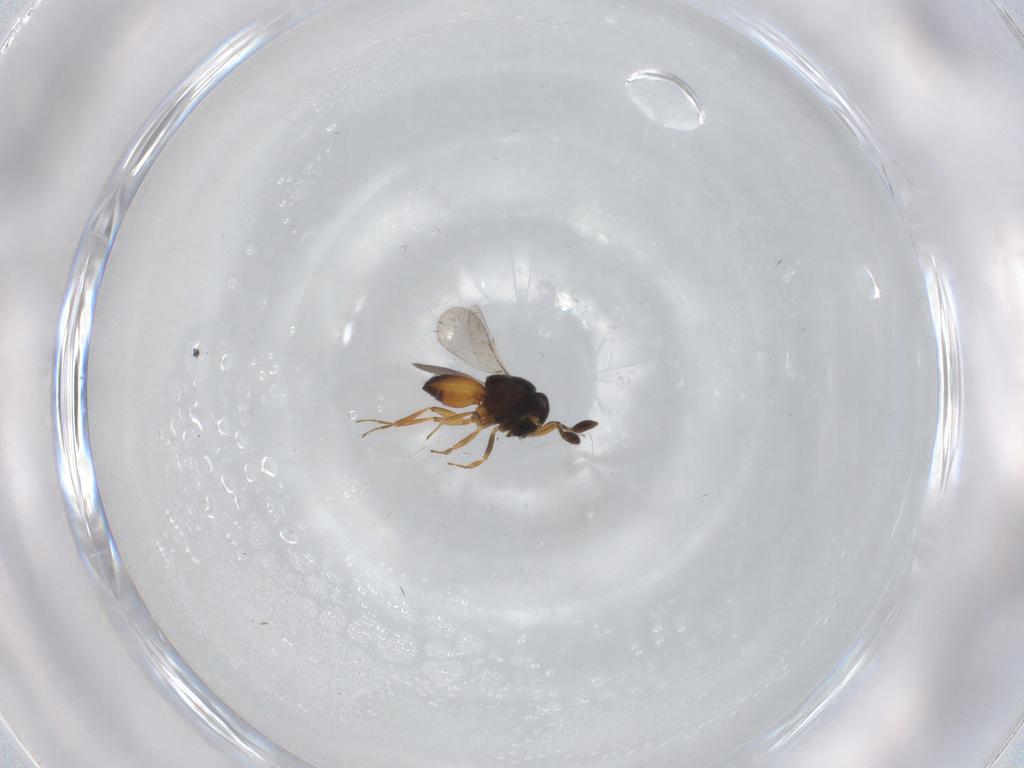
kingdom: Animalia
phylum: Arthropoda
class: Insecta
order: Hymenoptera
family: Scelionidae
